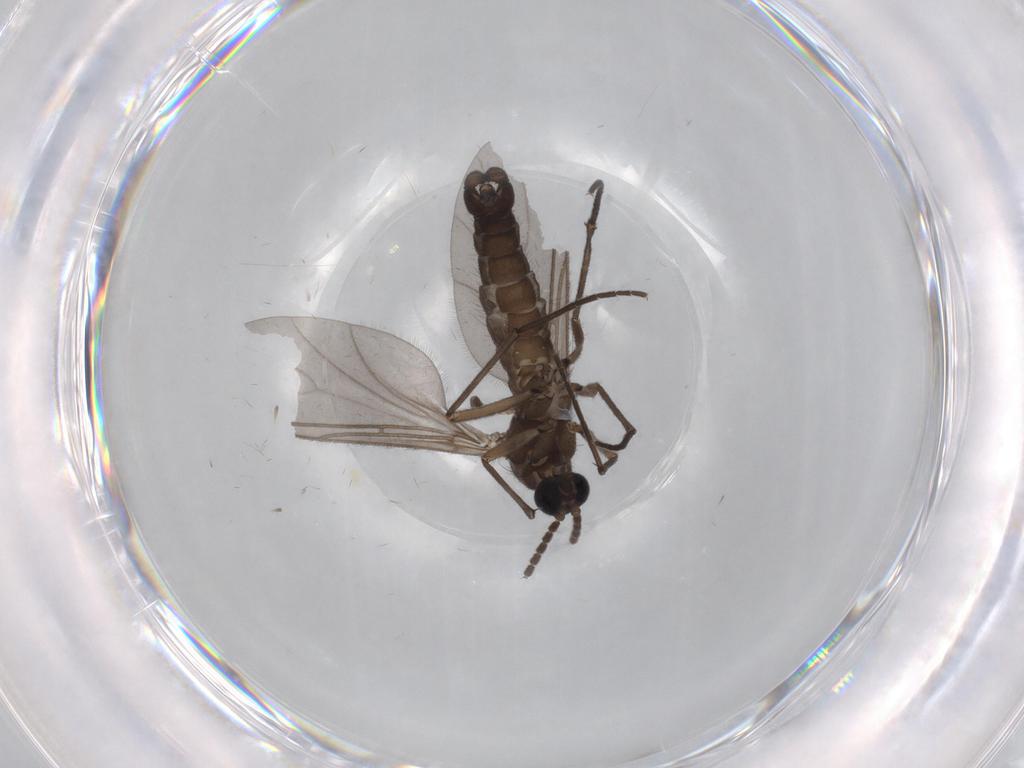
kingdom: Animalia
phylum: Arthropoda
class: Insecta
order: Diptera
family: Sciaridae
